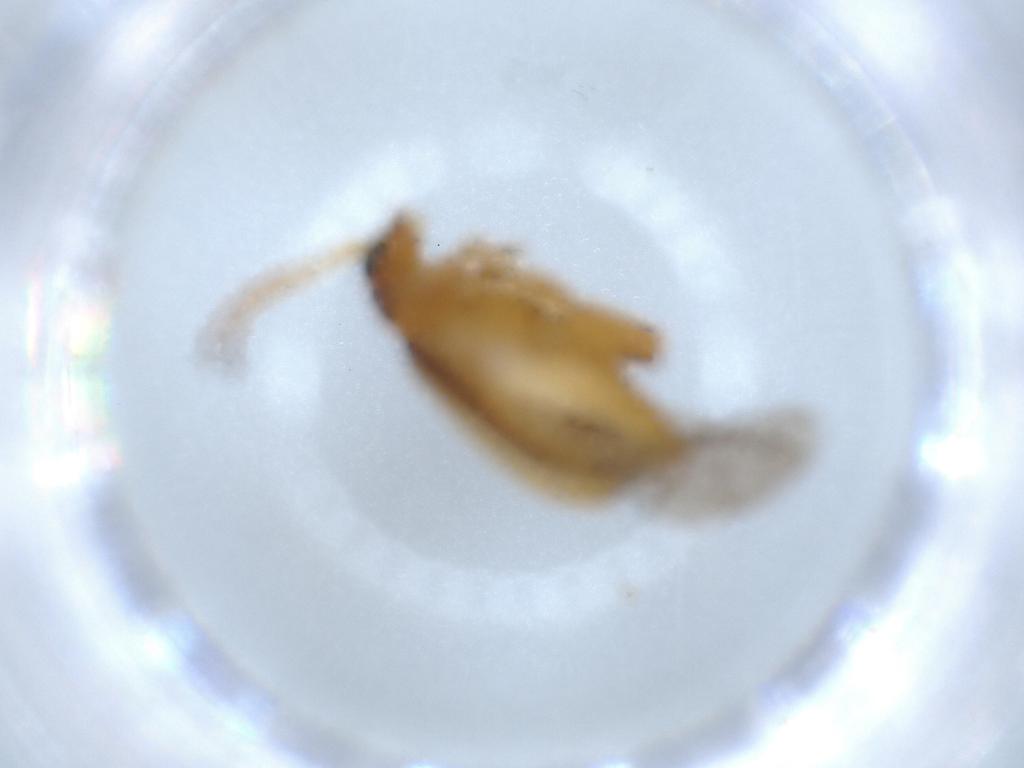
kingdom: Animalia
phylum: Arthropoda
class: Insecta
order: Coleoptera
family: Chrysomelidae
